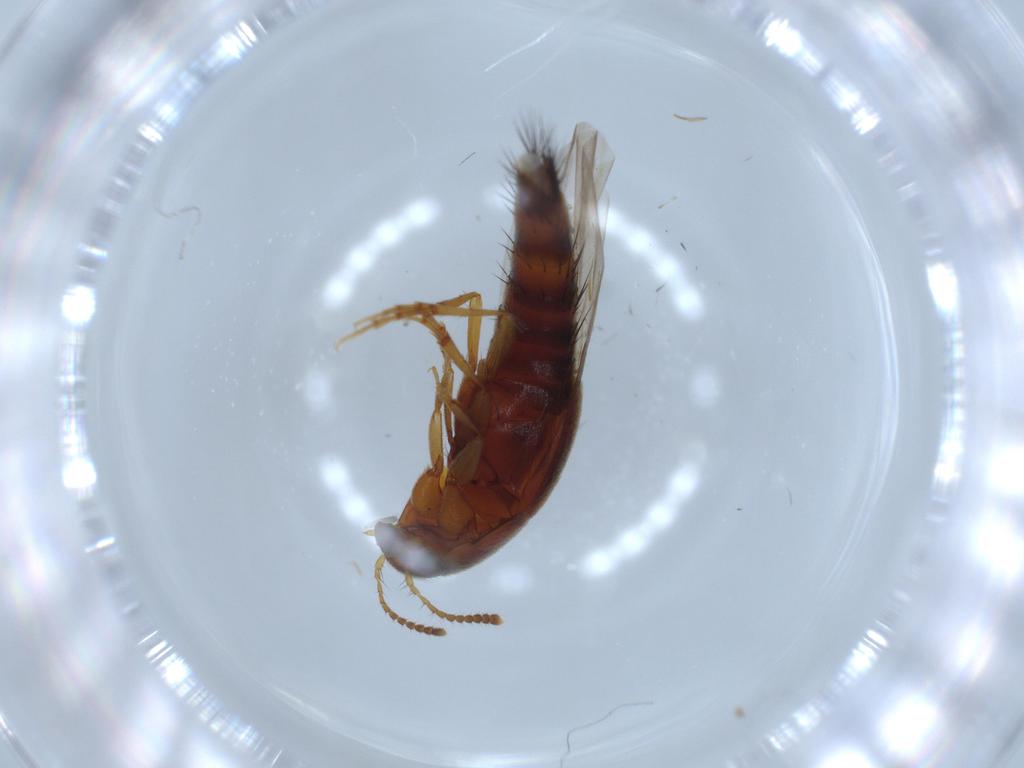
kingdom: Animalia
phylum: Arthropoda
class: Insecta
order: Coleoptera
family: Staphylinidae
